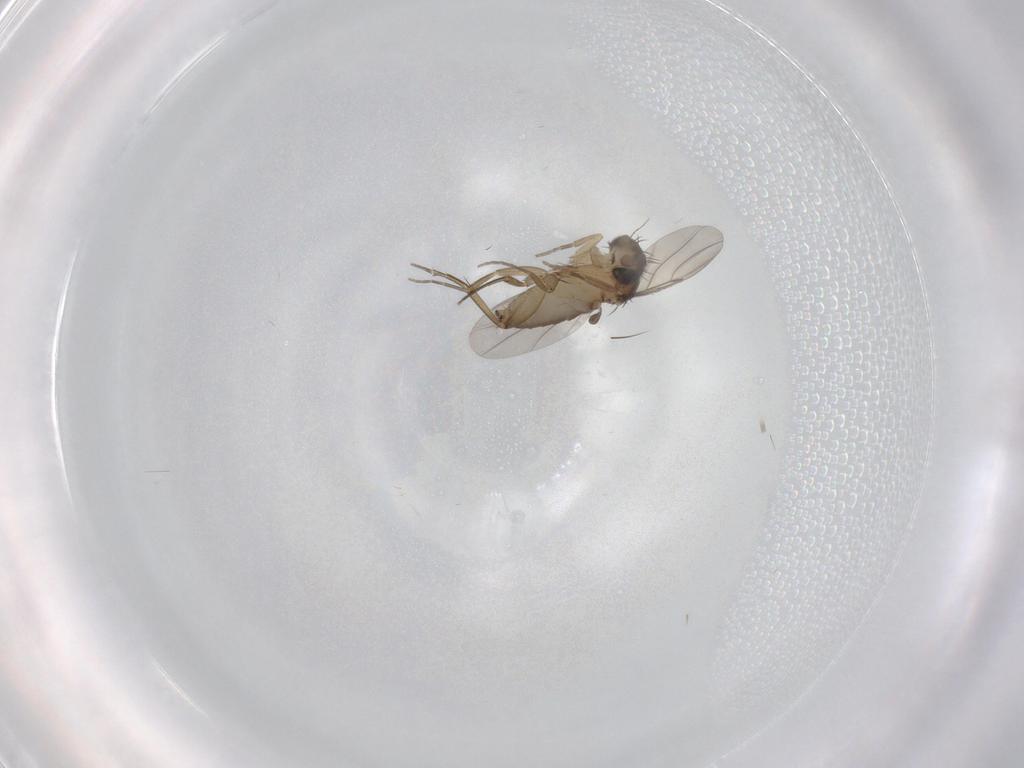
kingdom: Animalia
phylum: Arthropoda
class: Insecta
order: Diptera
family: Phoridae
